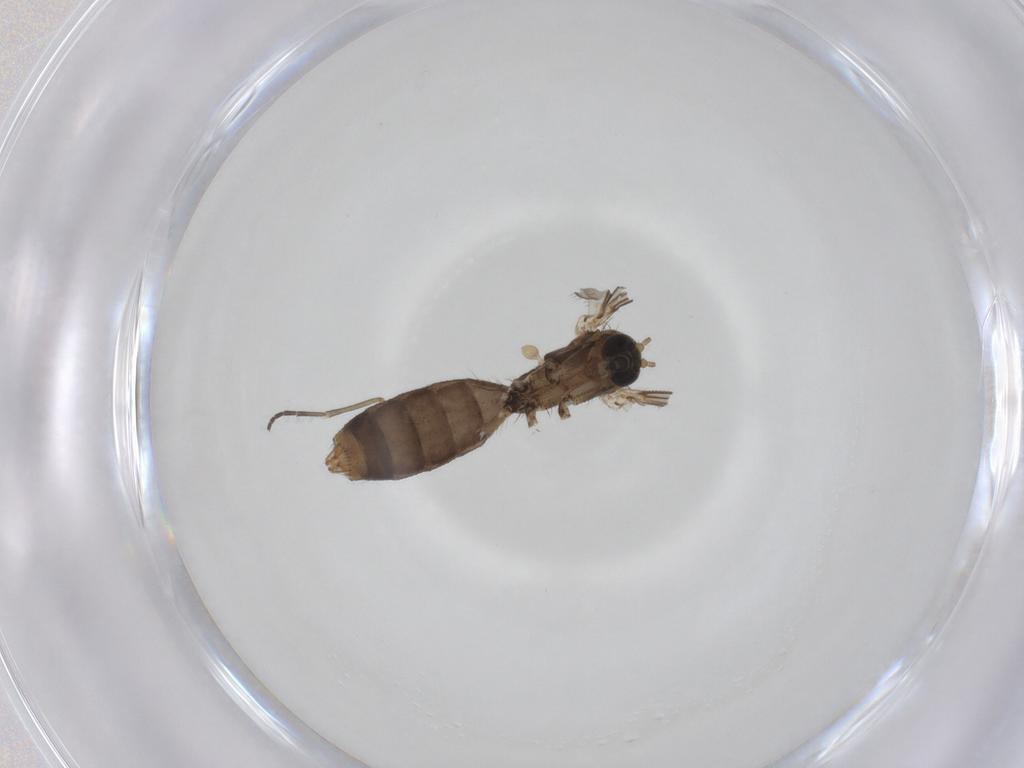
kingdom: Animalia
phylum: Arthropoda
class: Insecta
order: Diptera
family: Mycetophilidae
